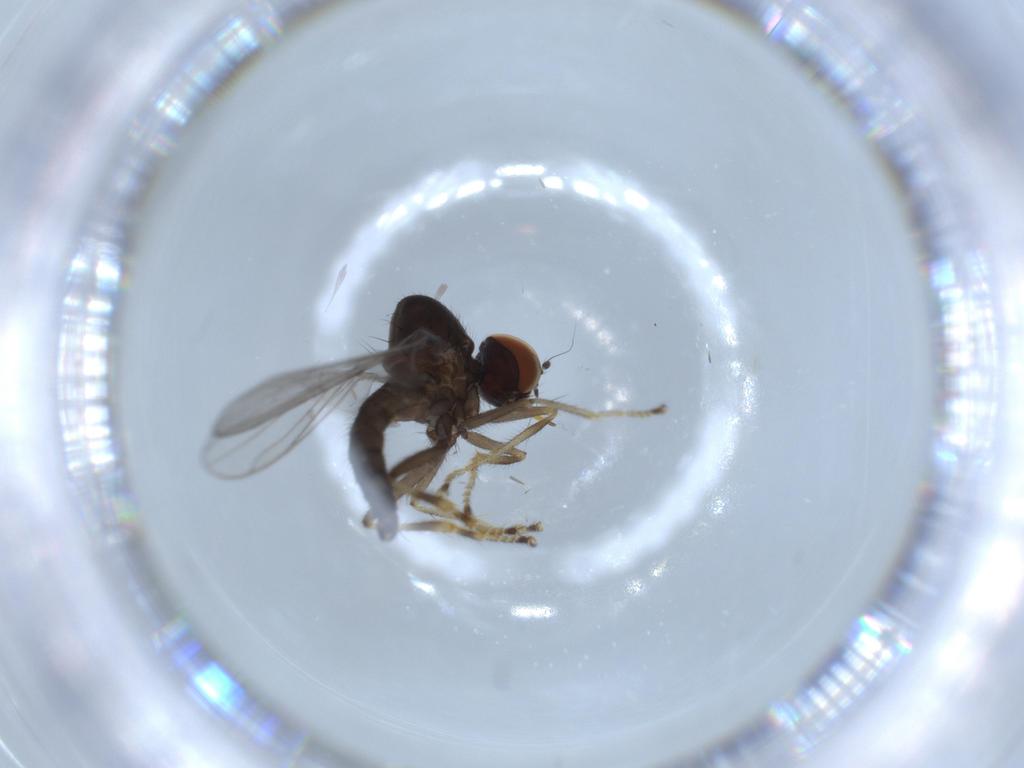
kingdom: Animalia
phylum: Arthropoda
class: Insecta
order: Diptera
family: Hybotidae
